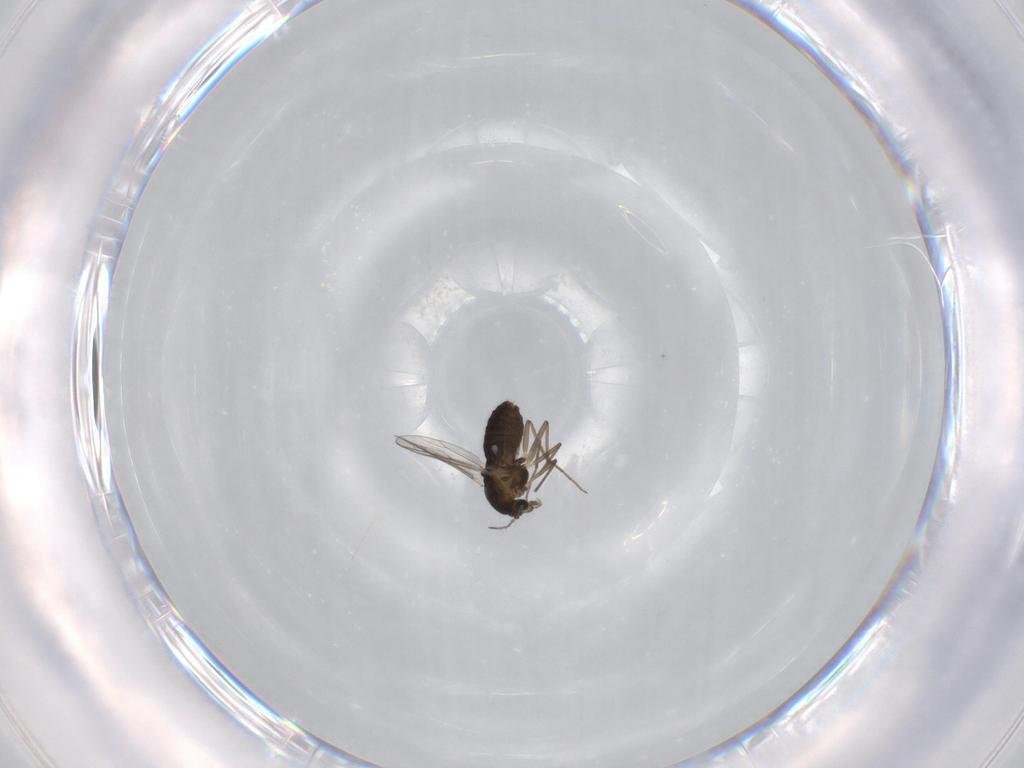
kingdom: Animalia
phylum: Arthropoda
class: Insecta
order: Diptera
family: Chironomidae
